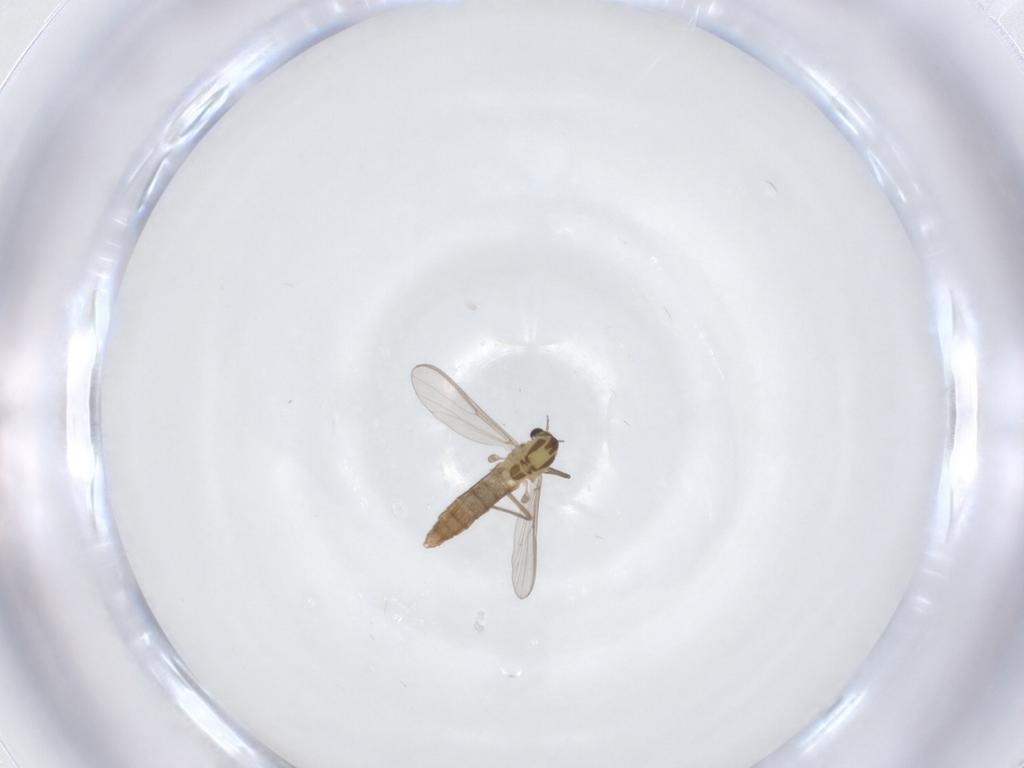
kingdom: Animalia
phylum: Arthropoda
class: Insecta
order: Diptera
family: Chironomidae
